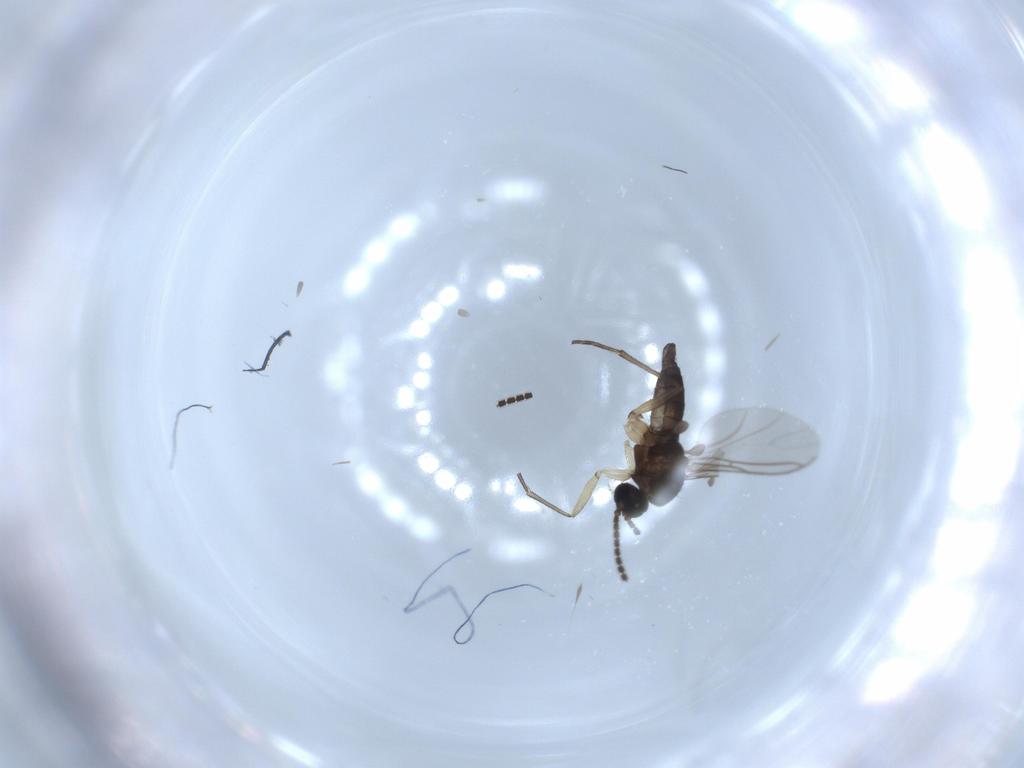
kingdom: Animalia
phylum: Arthropoda
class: Insecta
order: Diptera
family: Sciaridae
